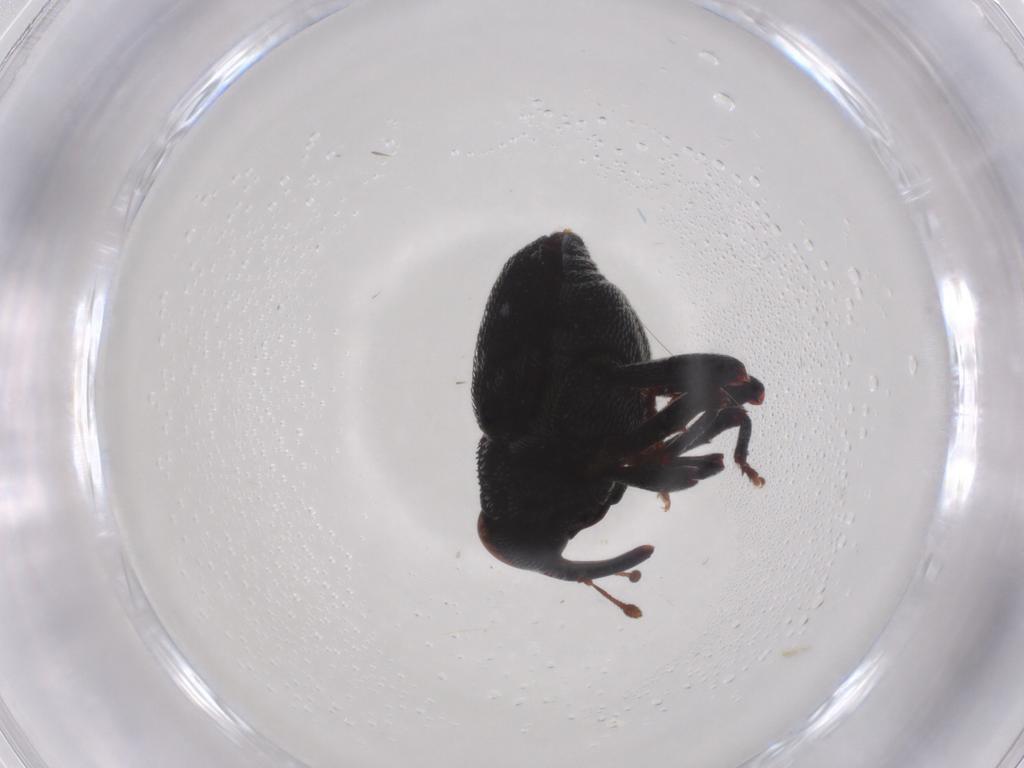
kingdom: Animalia
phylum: Arthropoda
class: Insecta
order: Coleoptera
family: Curculionidae
